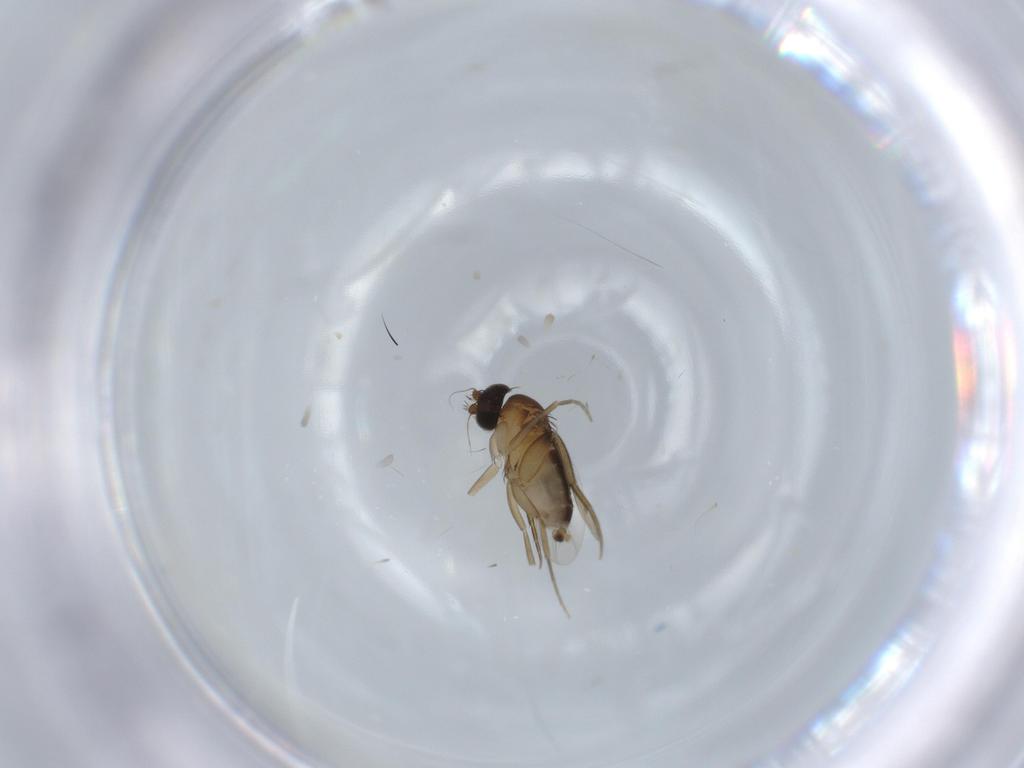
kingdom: Animalia
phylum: Arthropoda
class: Insecta
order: Diptera
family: Phoridae
